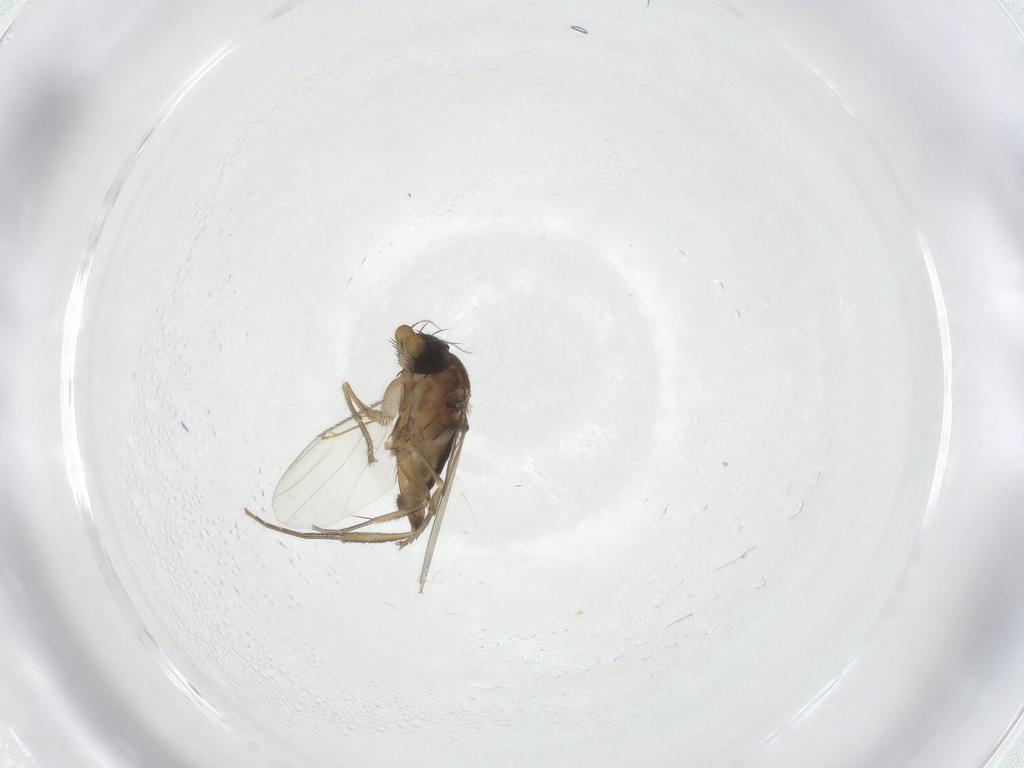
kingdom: Animalia
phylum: Arthropoda
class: Insecta
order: Diptera
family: Phoridae
